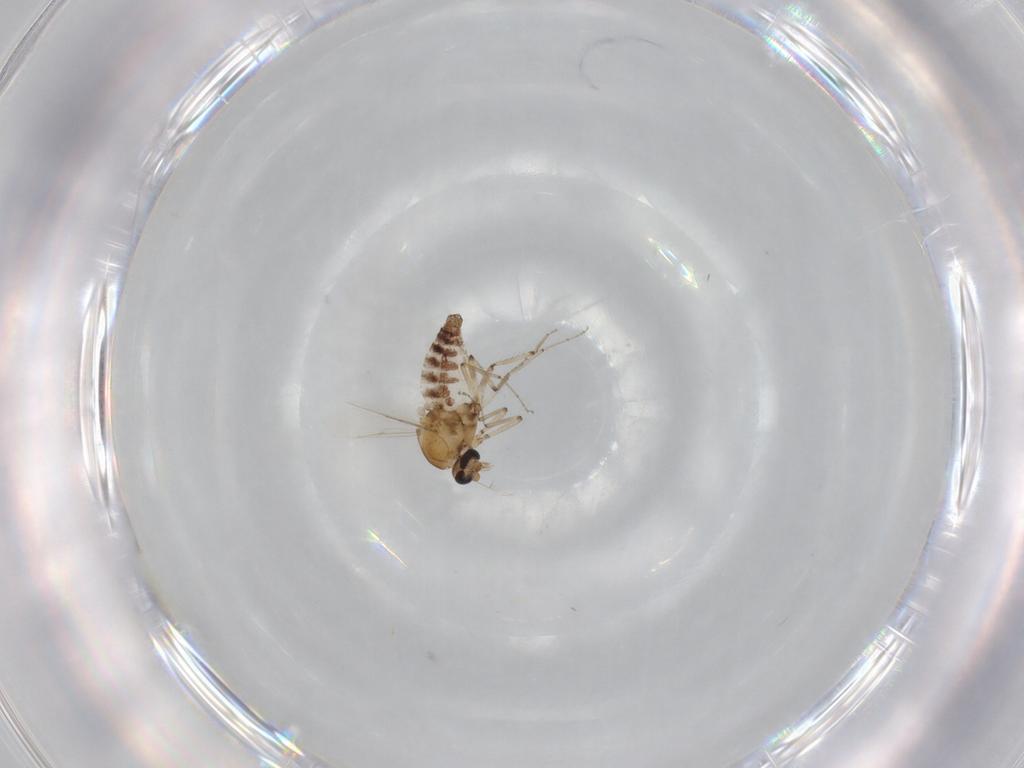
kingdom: Animalia
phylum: Arthropoda
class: Insecta
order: Diptera
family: Ceratopogonidae
